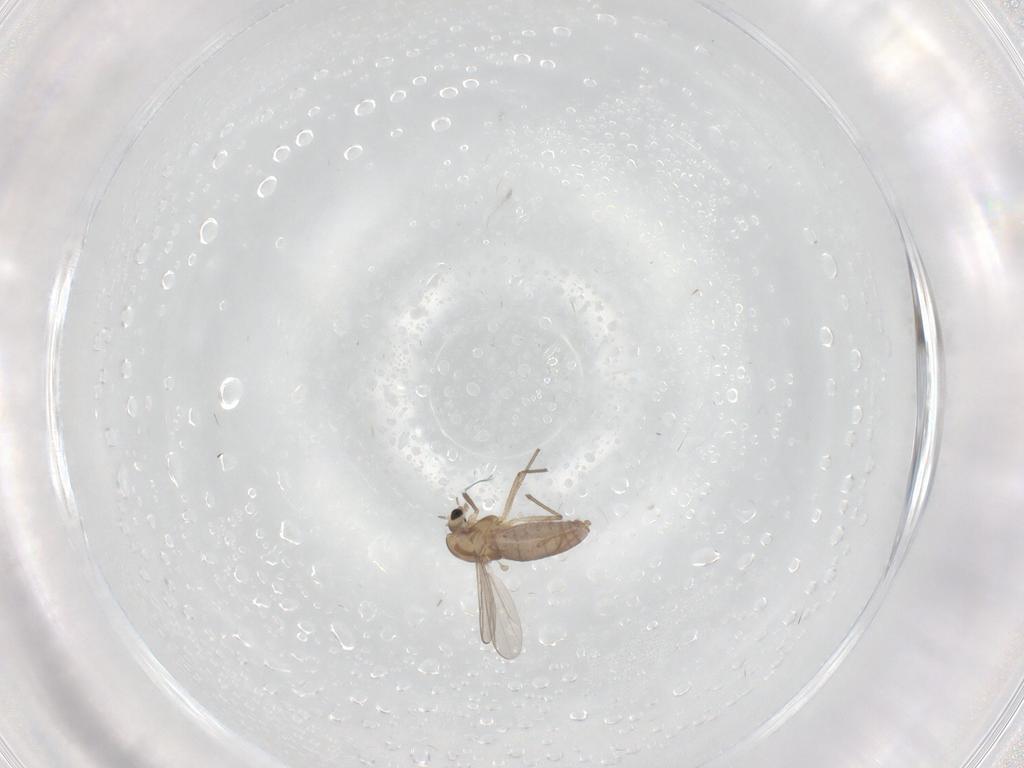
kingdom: Animalia
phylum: Arthropoda
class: Insecta
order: Diptera
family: Chironomidae
